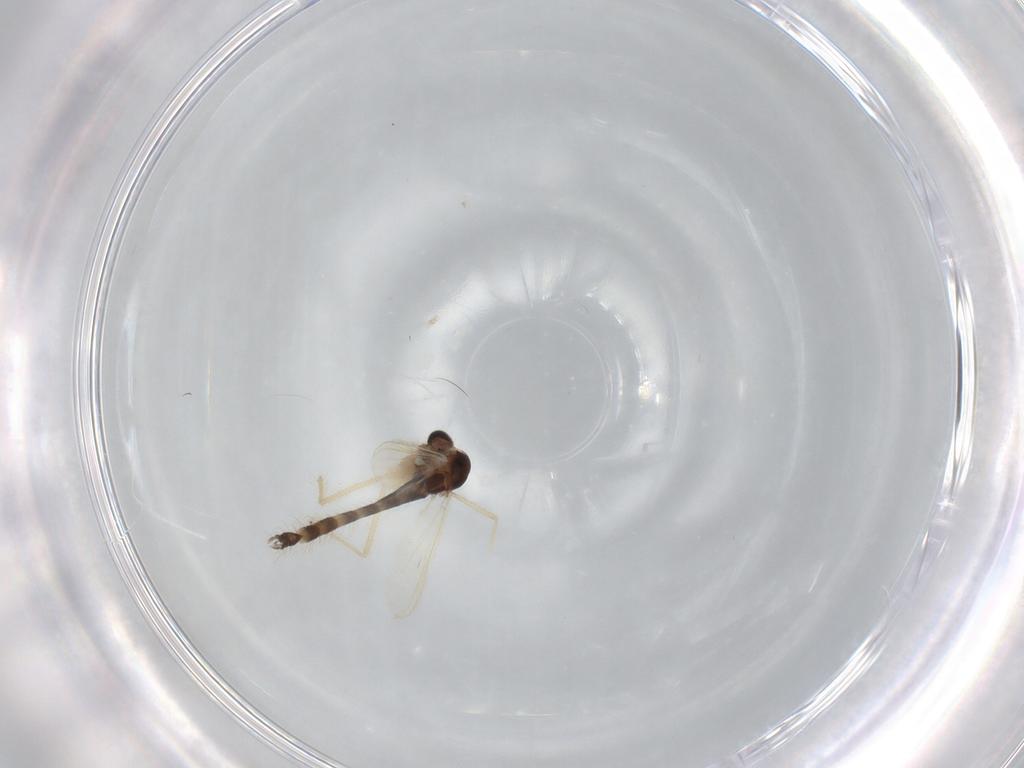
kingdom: Animalia
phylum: Arthropoda
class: Insecta
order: Diptera
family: Chironomidae
